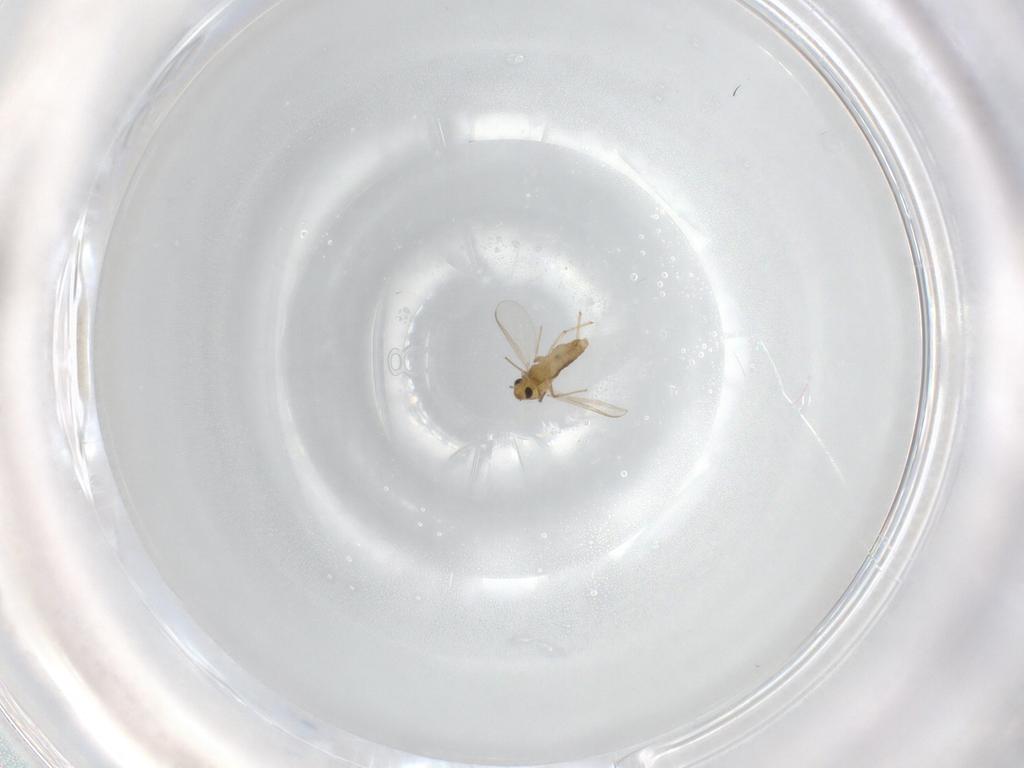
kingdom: Animalia
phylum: Arthropoda
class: Insecta
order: Diptera
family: Chironomidae
